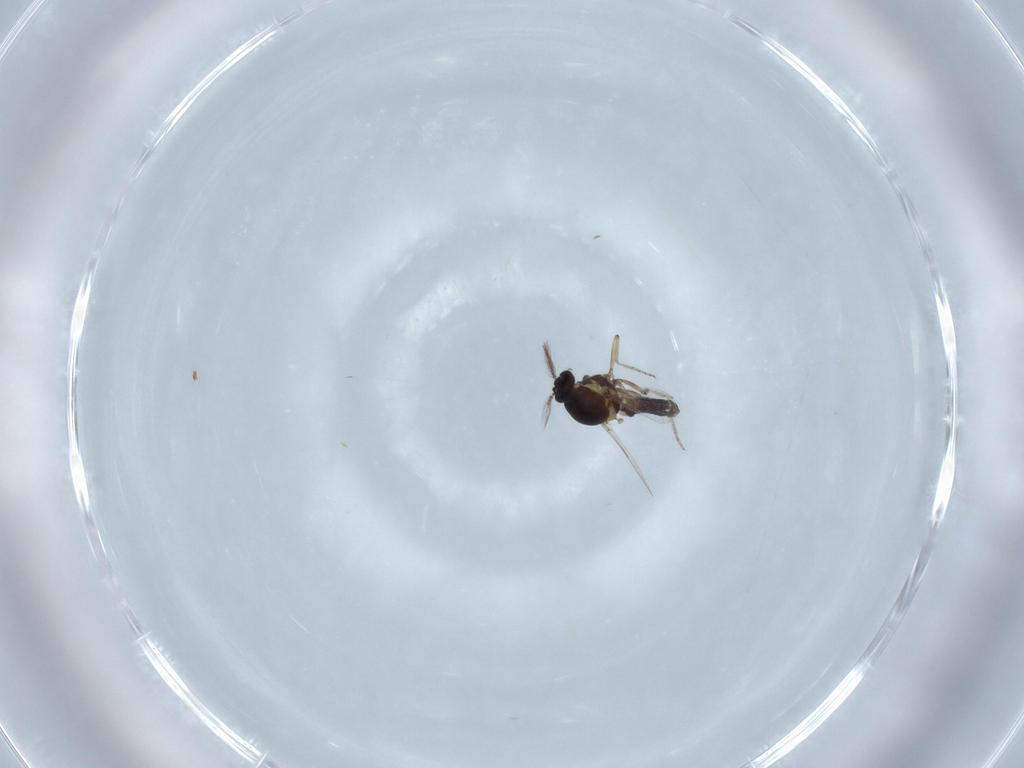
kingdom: Animalia
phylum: Arthropoda
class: Insecta
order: Diptera
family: Ceratopogonidae
